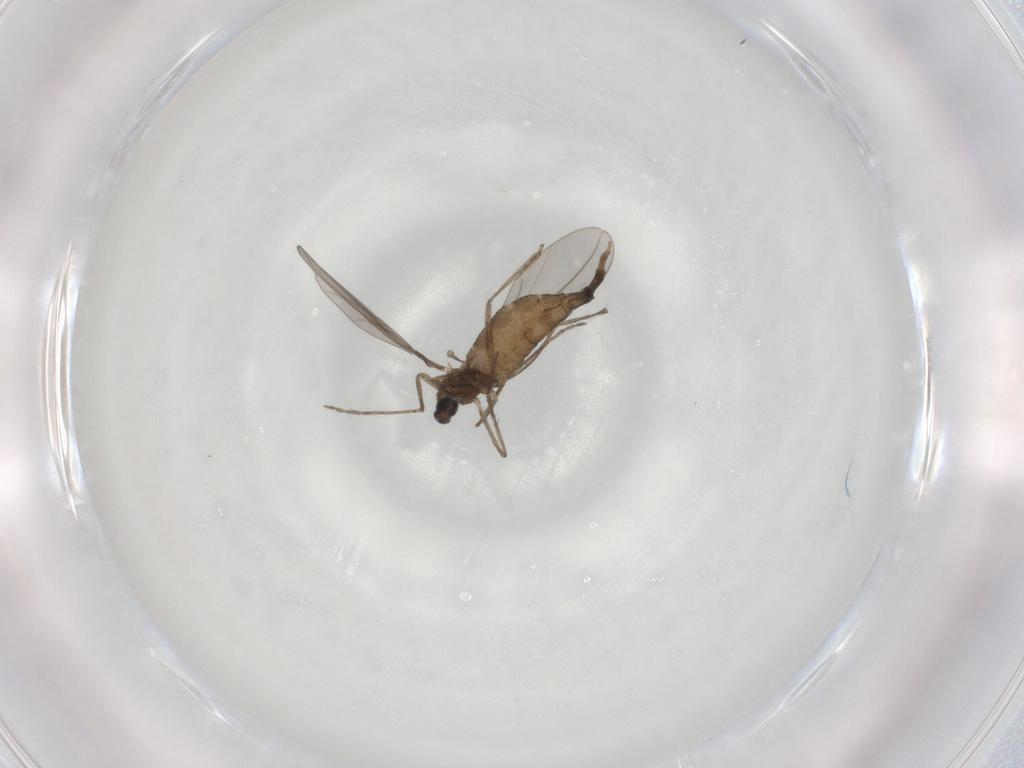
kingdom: Animalia
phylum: Arthropoda
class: Insecta
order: Diptera
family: Cecidomyiidae
